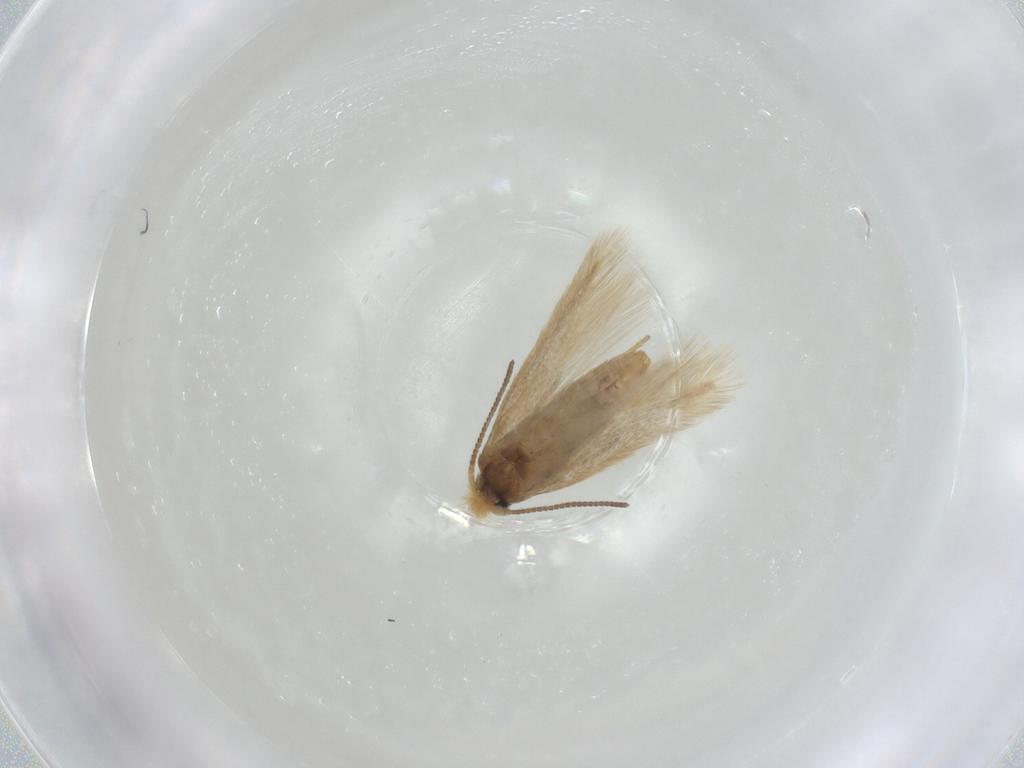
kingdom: Animalia
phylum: Arthropoda
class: Insecta
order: Lepidoptera
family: Nepticulidae
